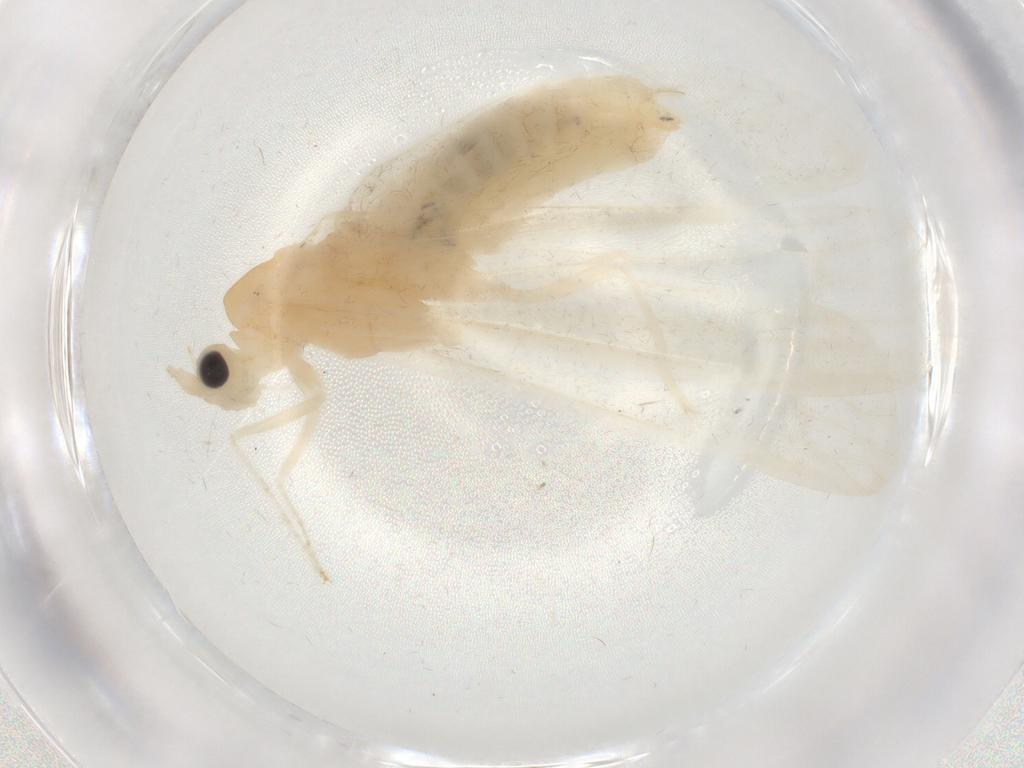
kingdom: Animalia
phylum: Arthropoda
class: Insecta
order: Trichoptera
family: Leptoceridae
